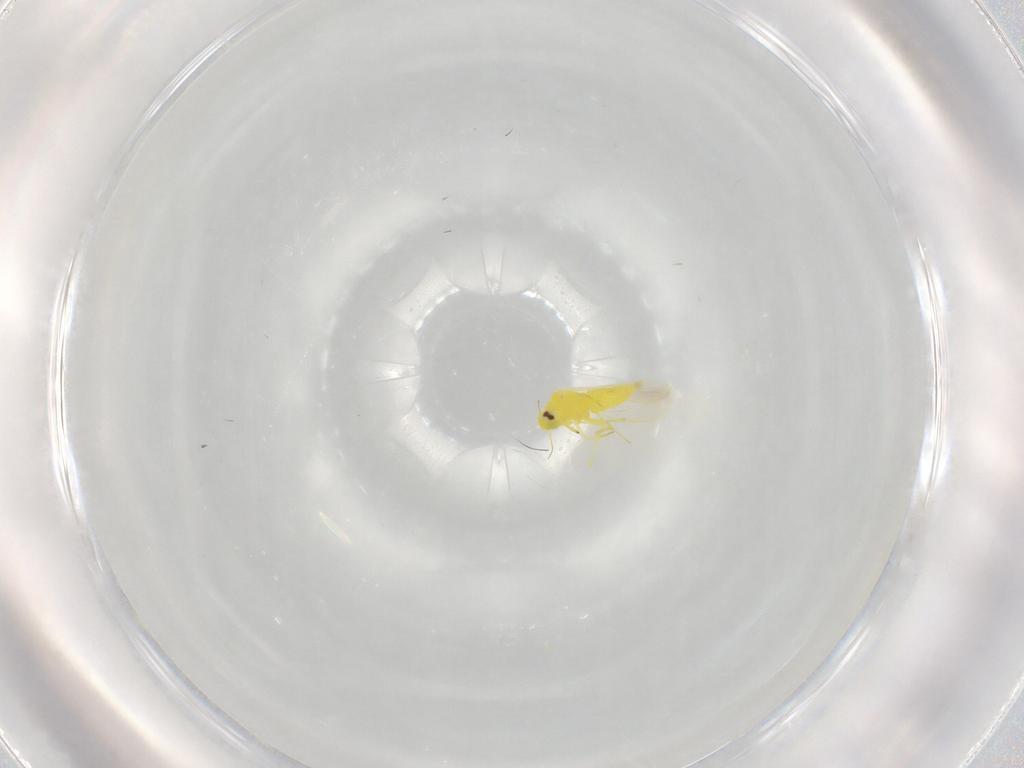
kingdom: Animalia
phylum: Arthropoda
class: Insecta
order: Hemiptera
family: Aleyrodidae
